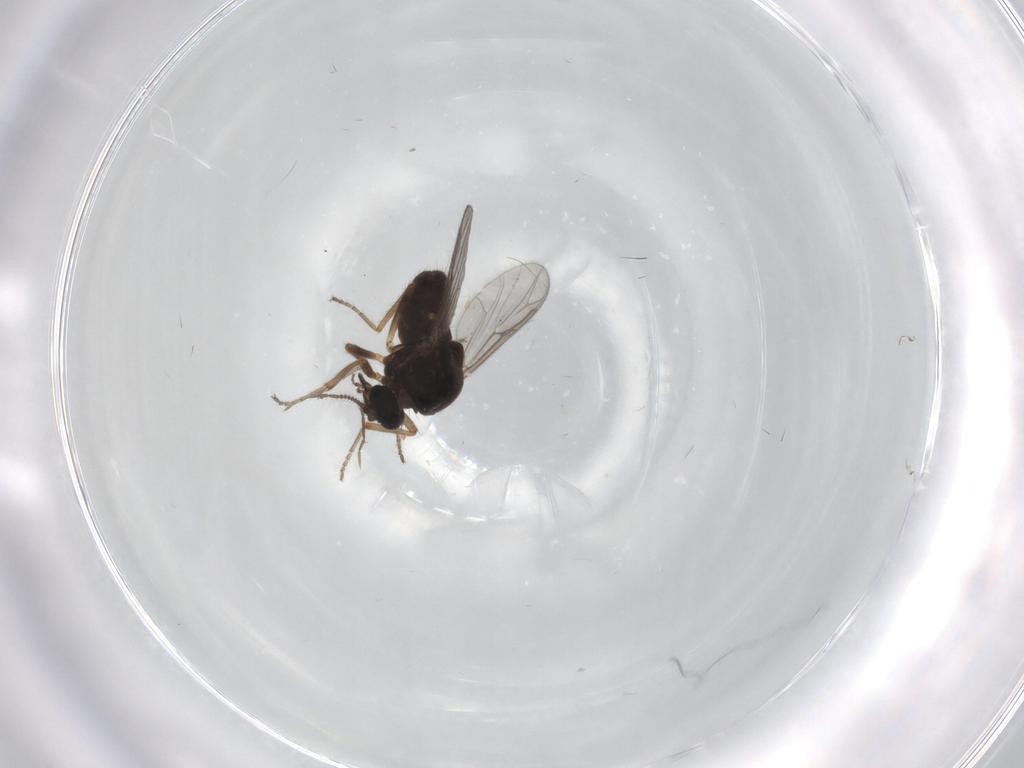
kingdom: Animalia
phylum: Arthropoda
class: Insecta
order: Diptera
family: Ceratopogonidae
